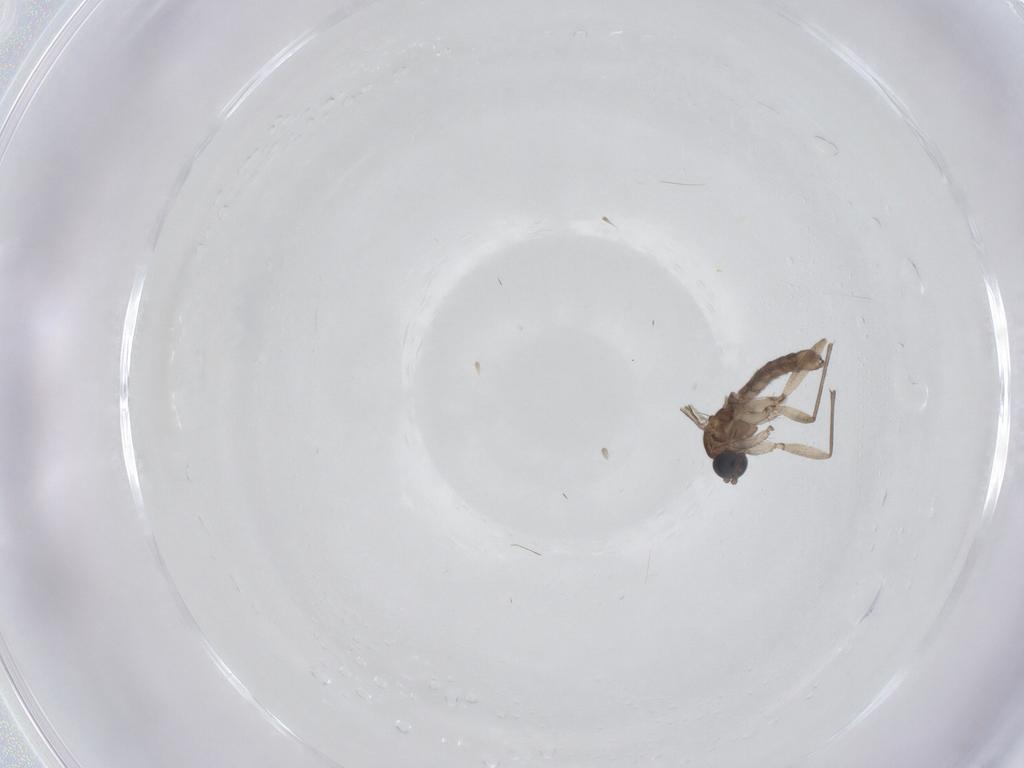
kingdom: Animalia
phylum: Arthropoda
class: Insecta
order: Diptera
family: Sciaridae
